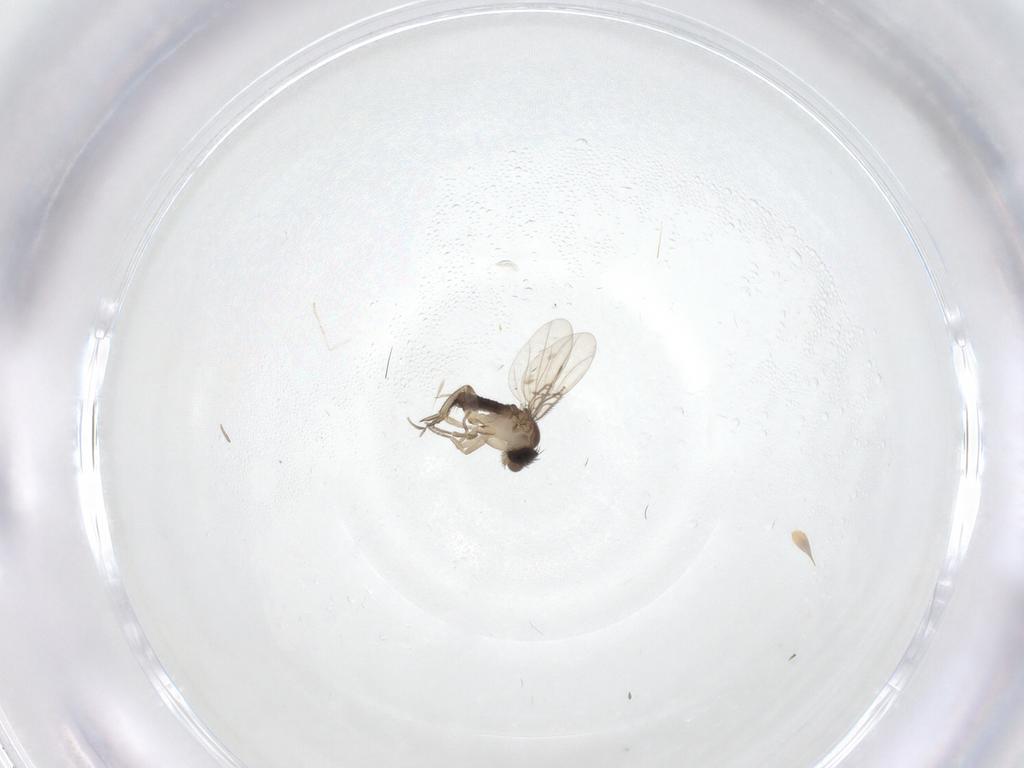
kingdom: Animalia
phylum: Arthropoda
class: Insecta
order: Diptera
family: Phoridae
